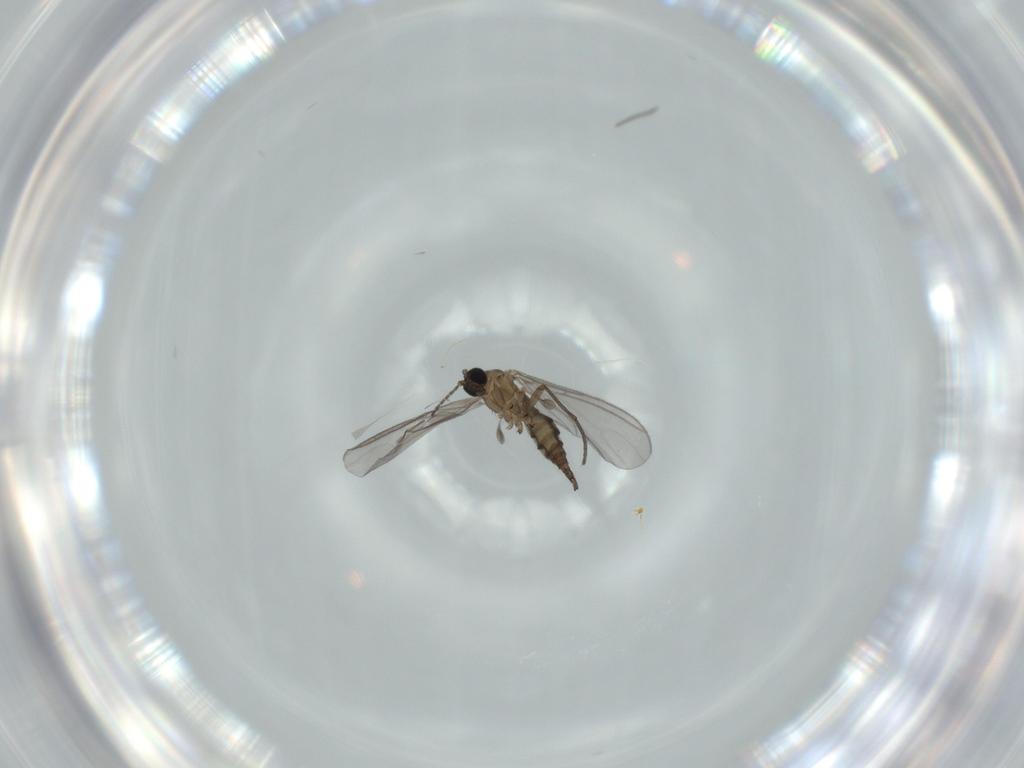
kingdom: Animalia
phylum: Arthropoda
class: Insecta
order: Diptera
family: Sciaridae
